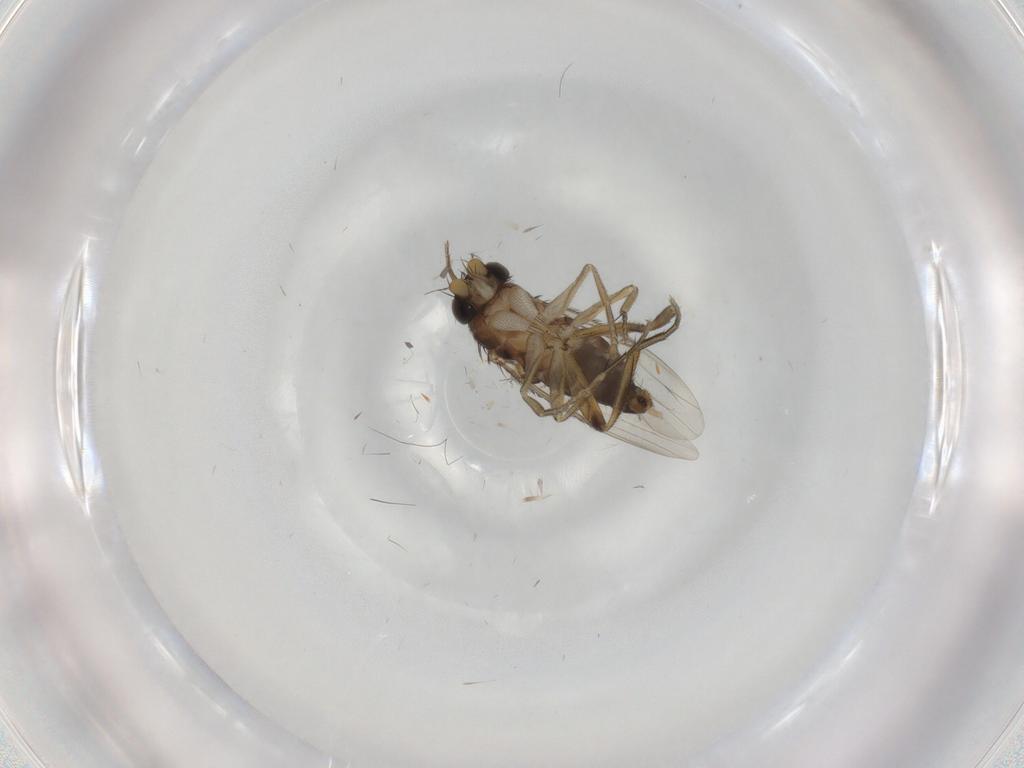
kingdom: Animalia
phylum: Arthropoda
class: Insecta
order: Diptera
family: Phoridae
